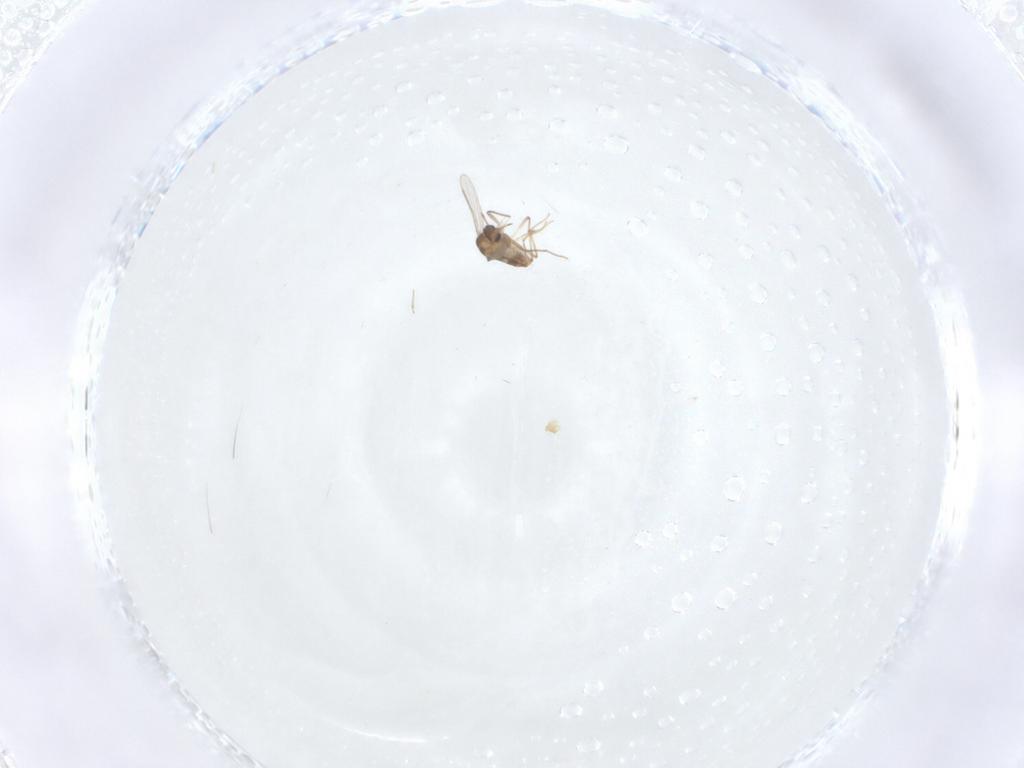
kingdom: Animalia
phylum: Arthropoda
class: Insecta
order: Diptera
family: Chironomidae
